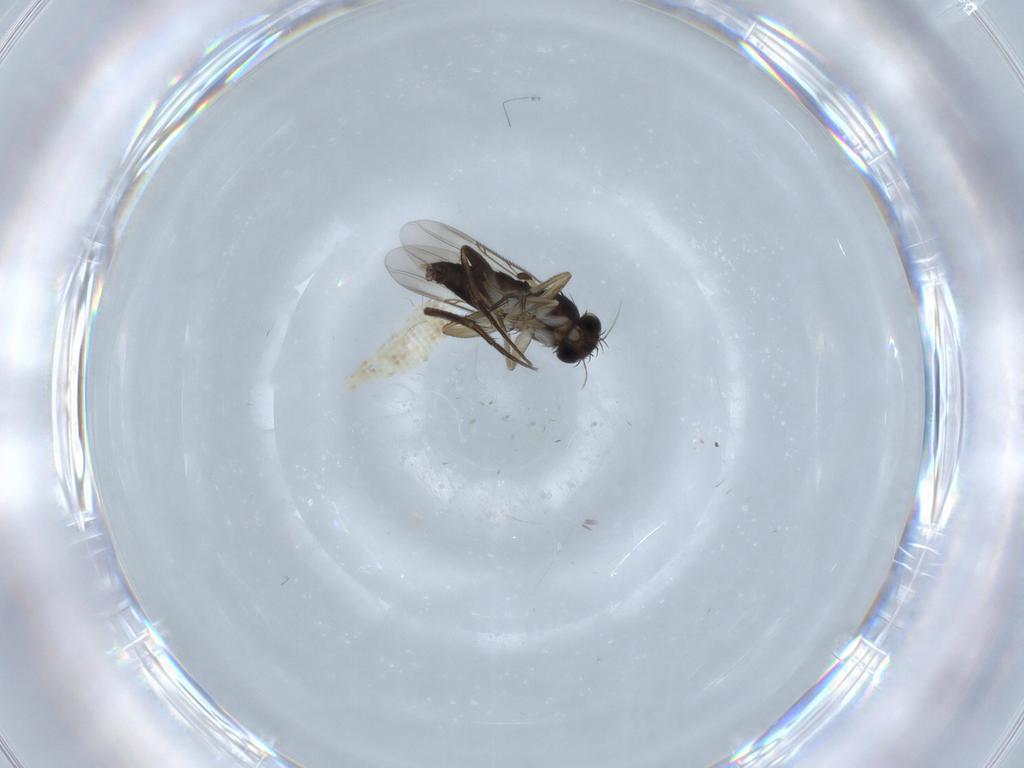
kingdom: Animalia
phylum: Arthropoda
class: Insecta
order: Diptera
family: Phoridae
